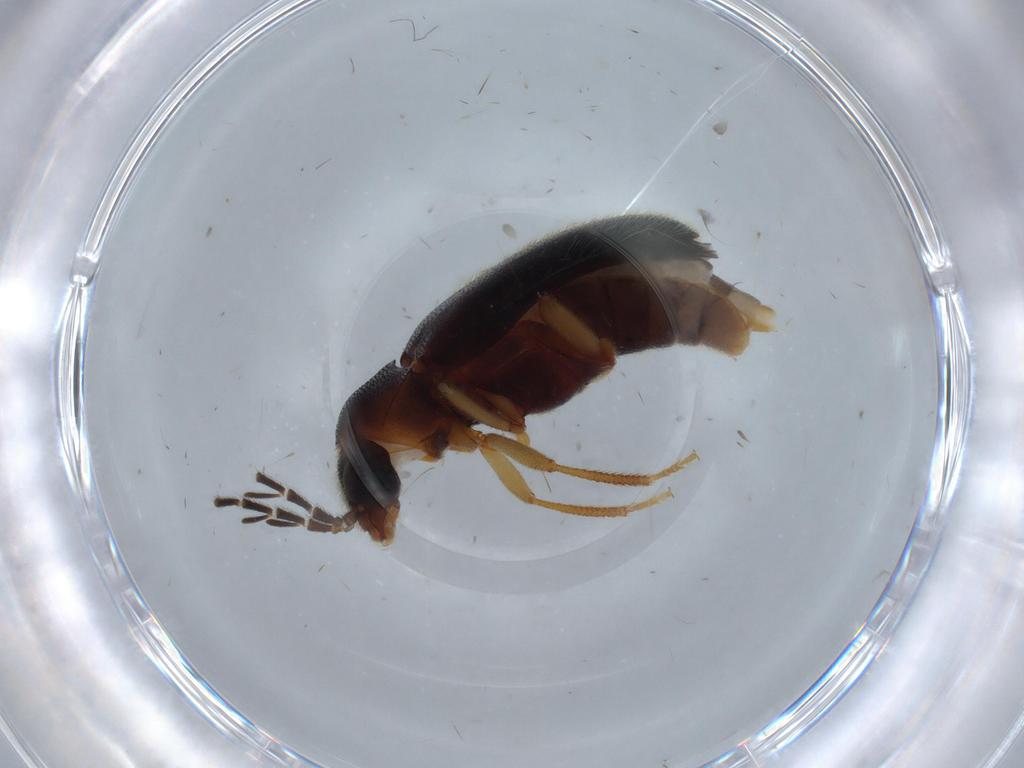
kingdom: Animalia
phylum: Arthropoda
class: Insecta
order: Coleoptera
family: Ptilodactylidae
